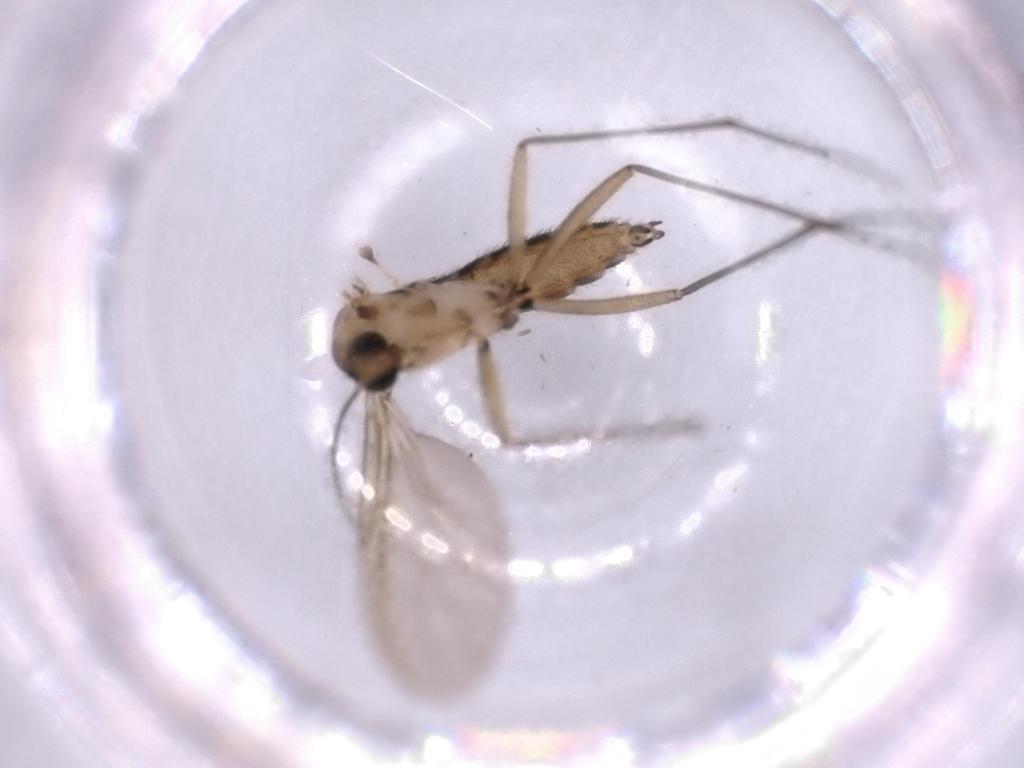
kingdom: Animalia
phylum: Arthropoda
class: Insecta
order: Diptera
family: Sciaridae
